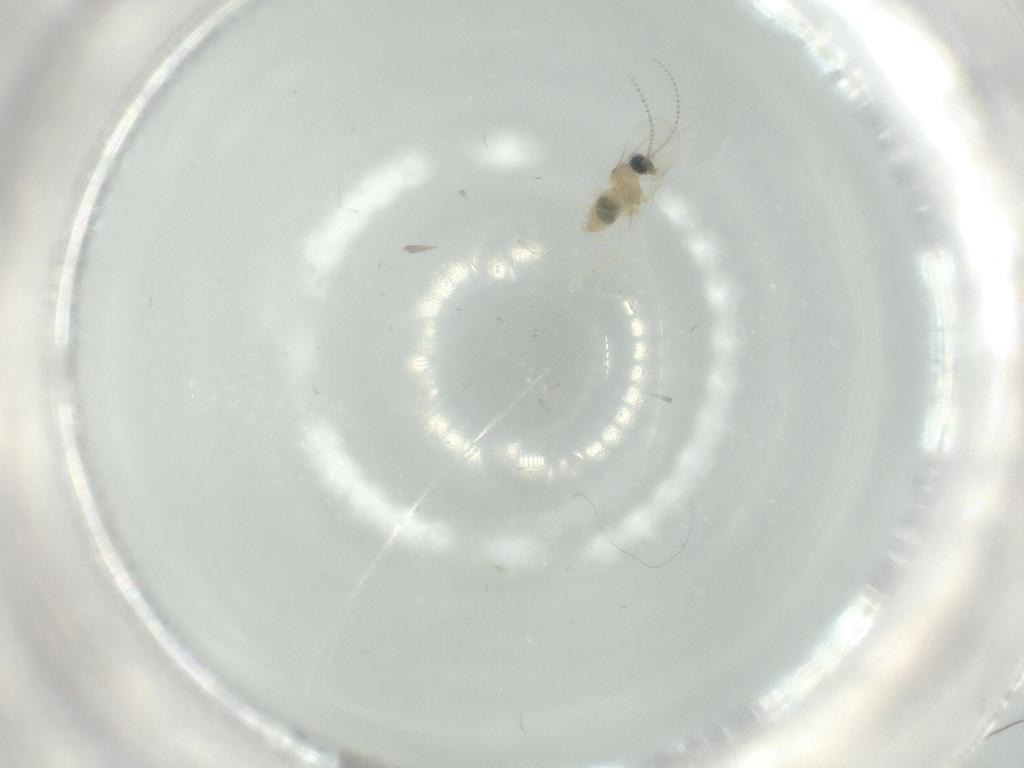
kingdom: Animalia
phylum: Arthropoda
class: Insecta
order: Diptera
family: Cecidomyiidae
